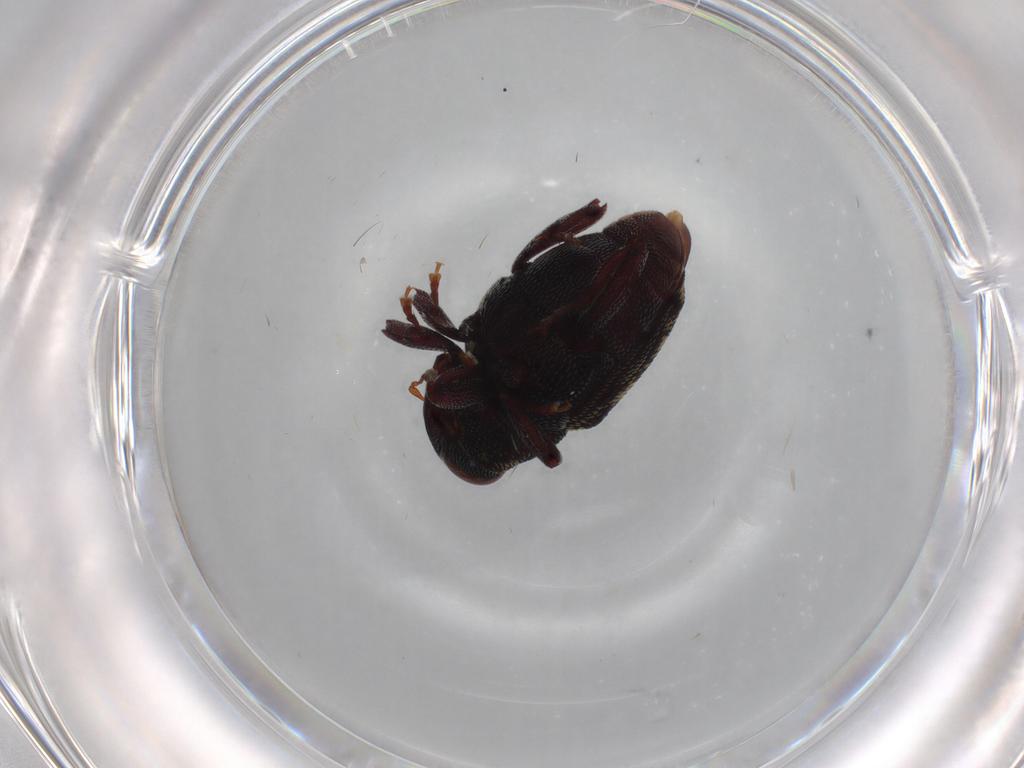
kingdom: Animalia
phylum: Arthropoda
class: Insecta
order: Coleoptera
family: Curculionidae
